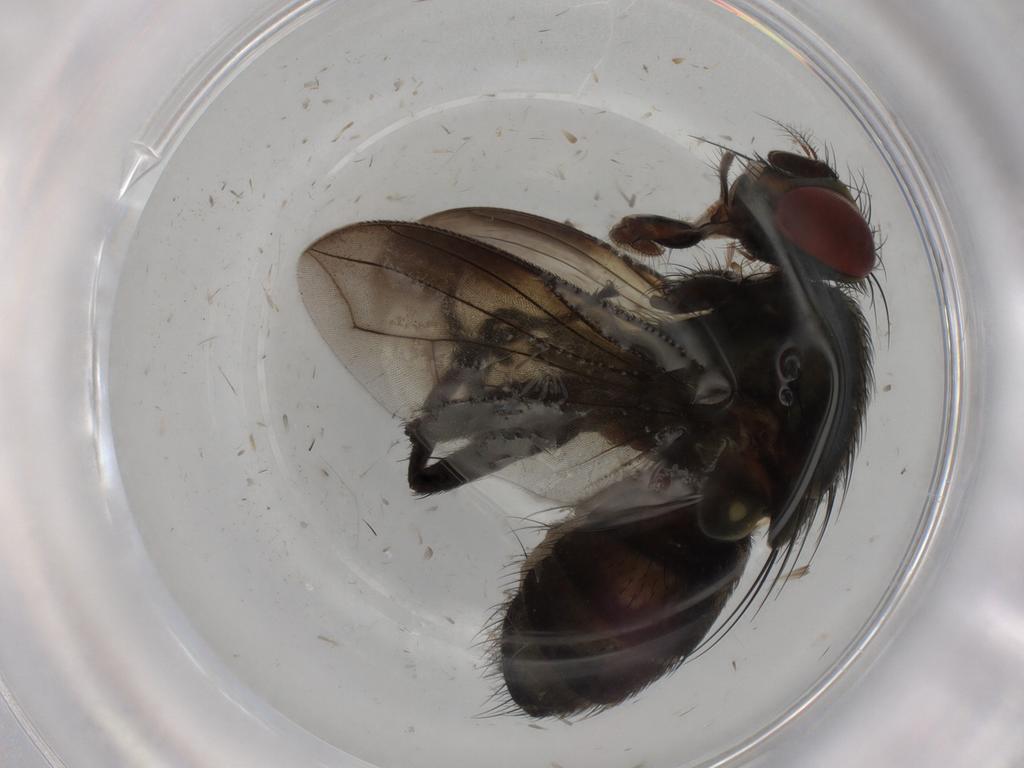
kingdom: Animalia
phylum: Arthropoda
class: Insecta
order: Diptera
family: Sarcophagidae
